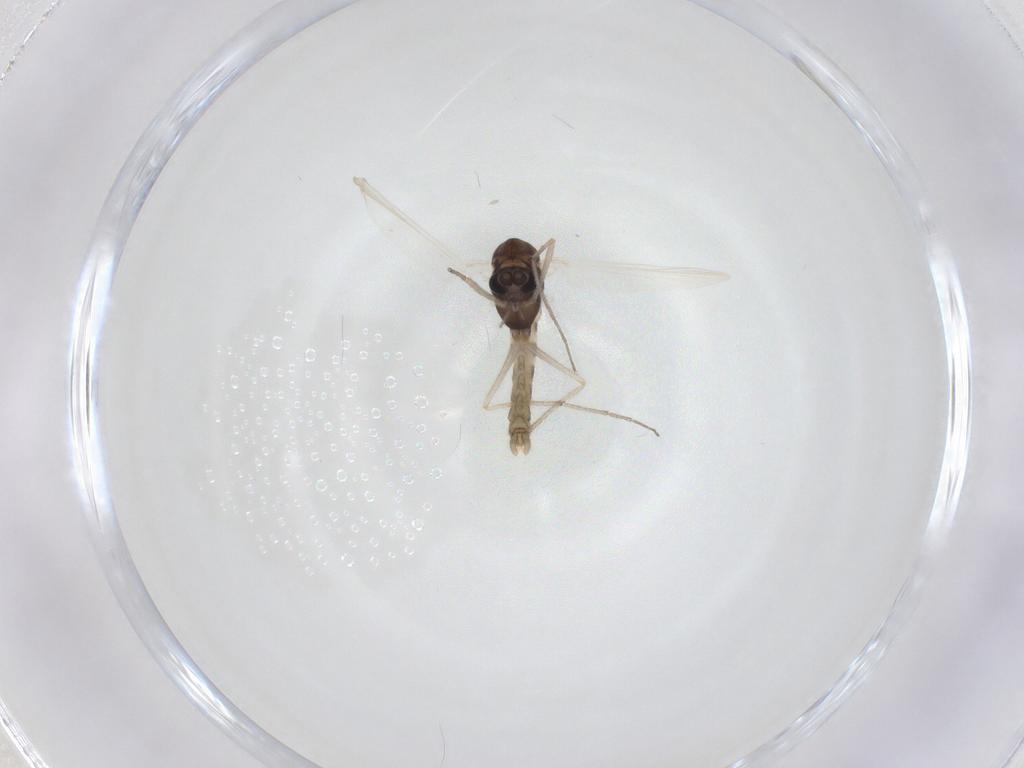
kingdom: Animalia
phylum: Arthropoda
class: Insecta
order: Diptera
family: Chironomidae
